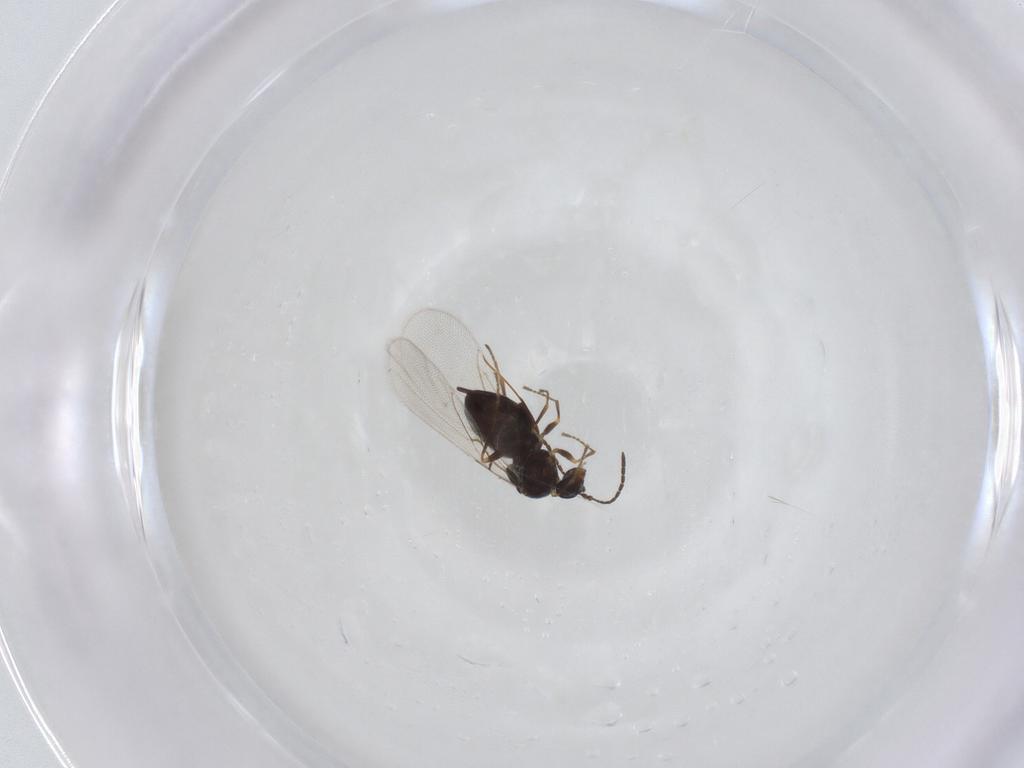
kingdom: Animalia
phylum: Arthropoda
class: Insecta
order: Hymenoptera
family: Cynipidae
